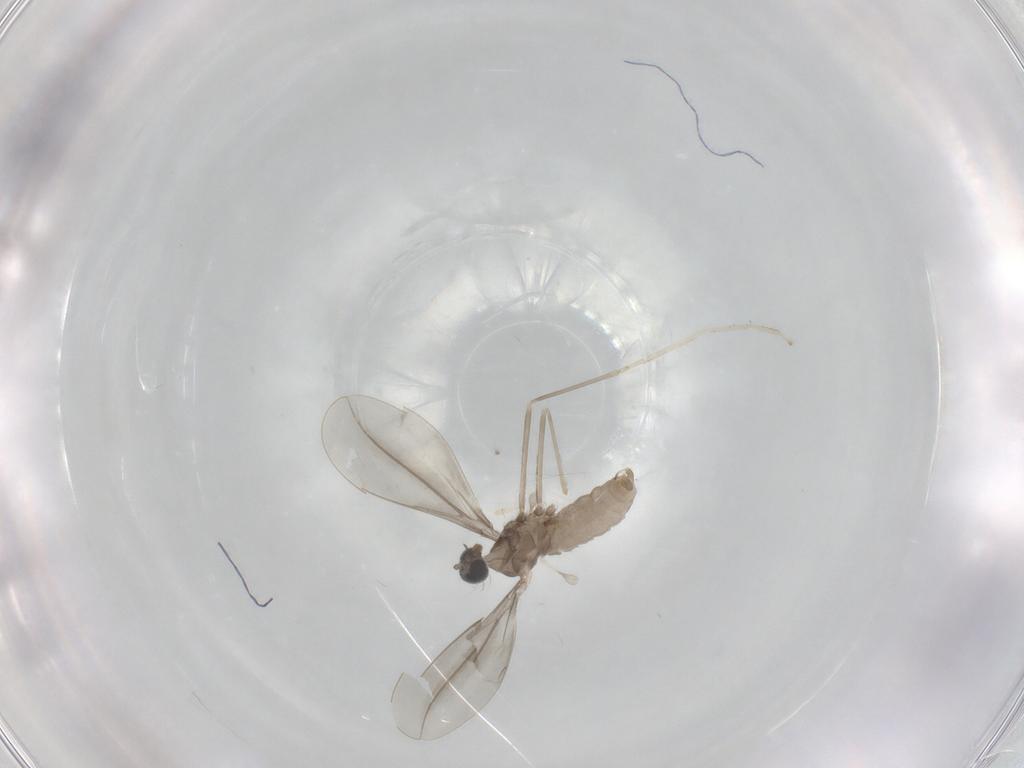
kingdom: Animalia
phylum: Arthropoda
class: Insecta
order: Diptera
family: Cecidomyiidae
